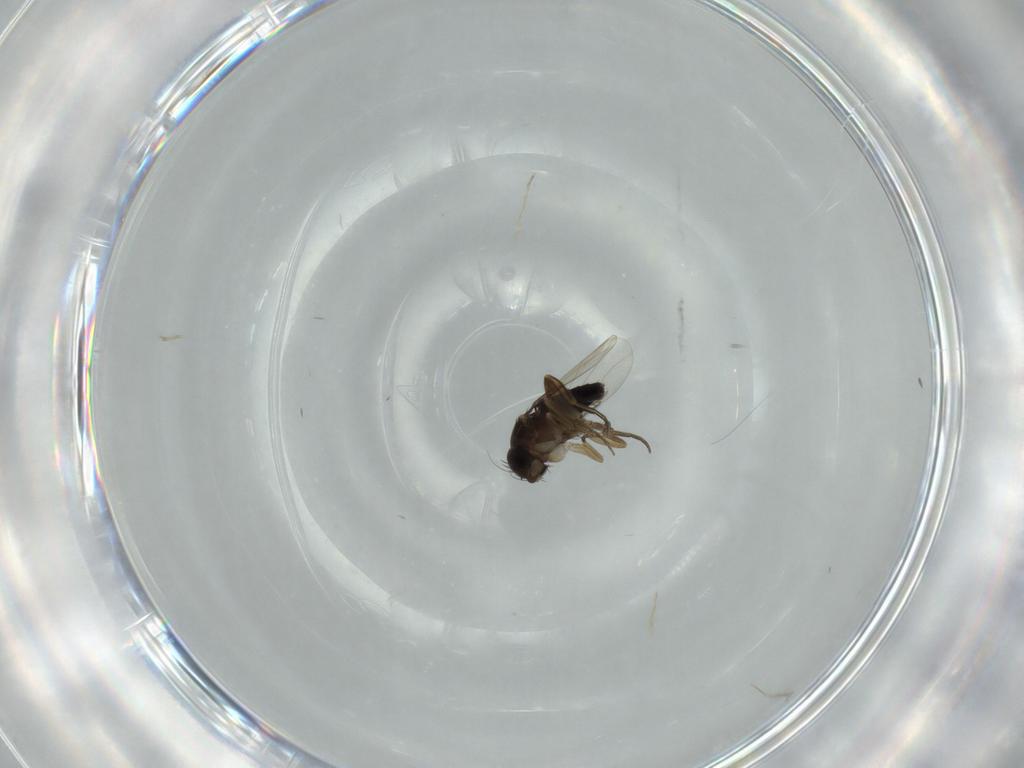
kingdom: Animalia
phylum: Arthropoda
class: Insecta
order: Diptera
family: Phoridae
